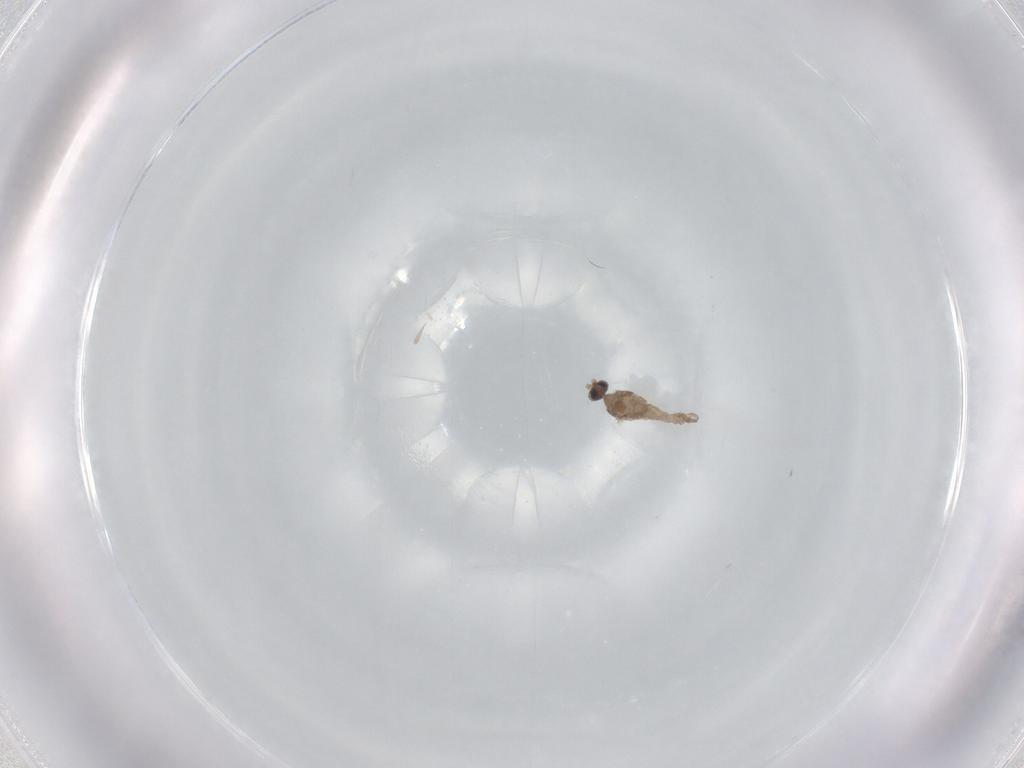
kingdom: Animalia
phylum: Arthropoda
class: Insecta
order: Diptera
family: Cecidomyiidae
